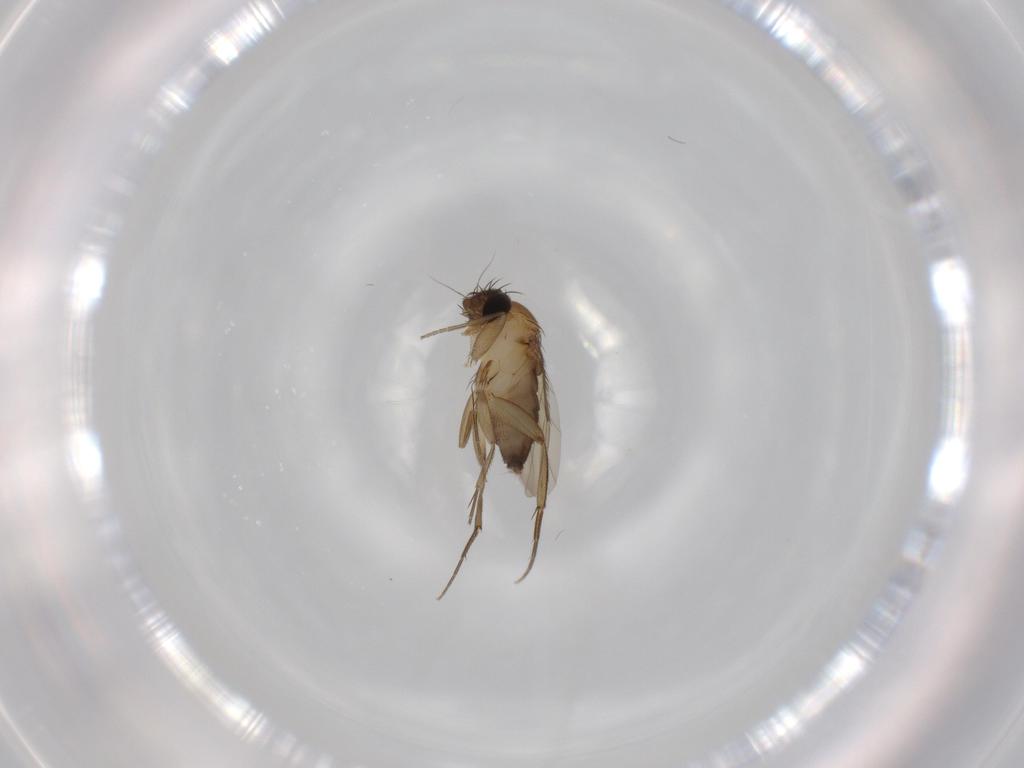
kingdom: Animalia
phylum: Arthropoda
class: Insecta
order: Diptera
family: Phoridae
